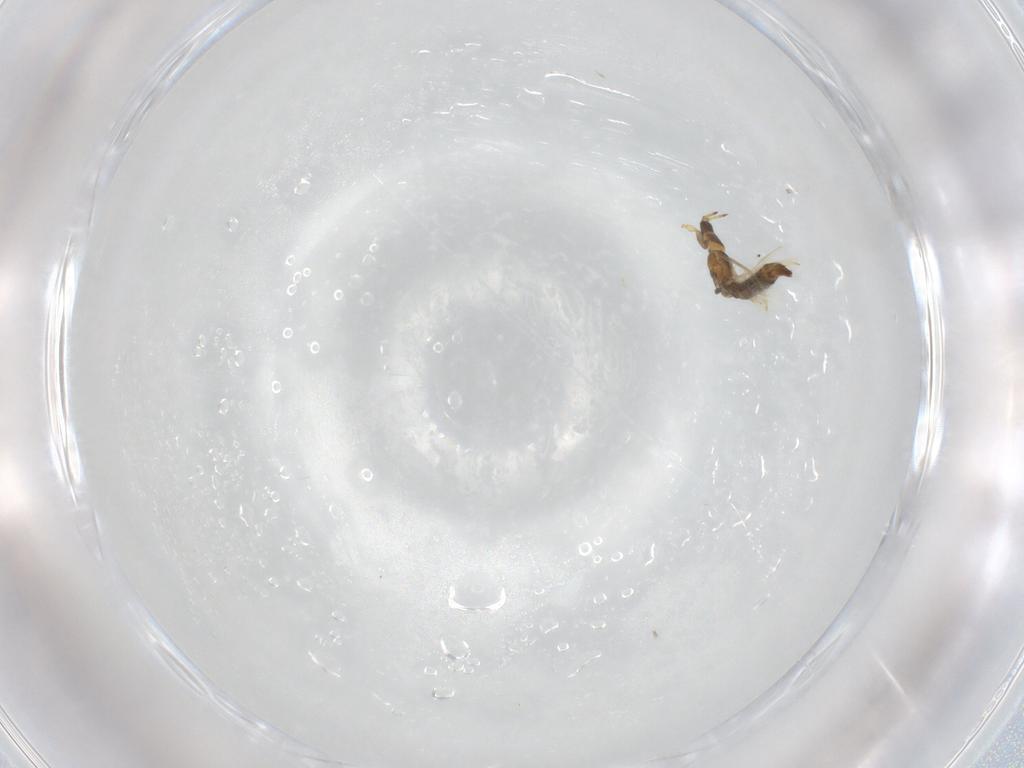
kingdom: Animalia
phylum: Arthropoda
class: Insecta
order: Thysanoptera
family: Thripidae
